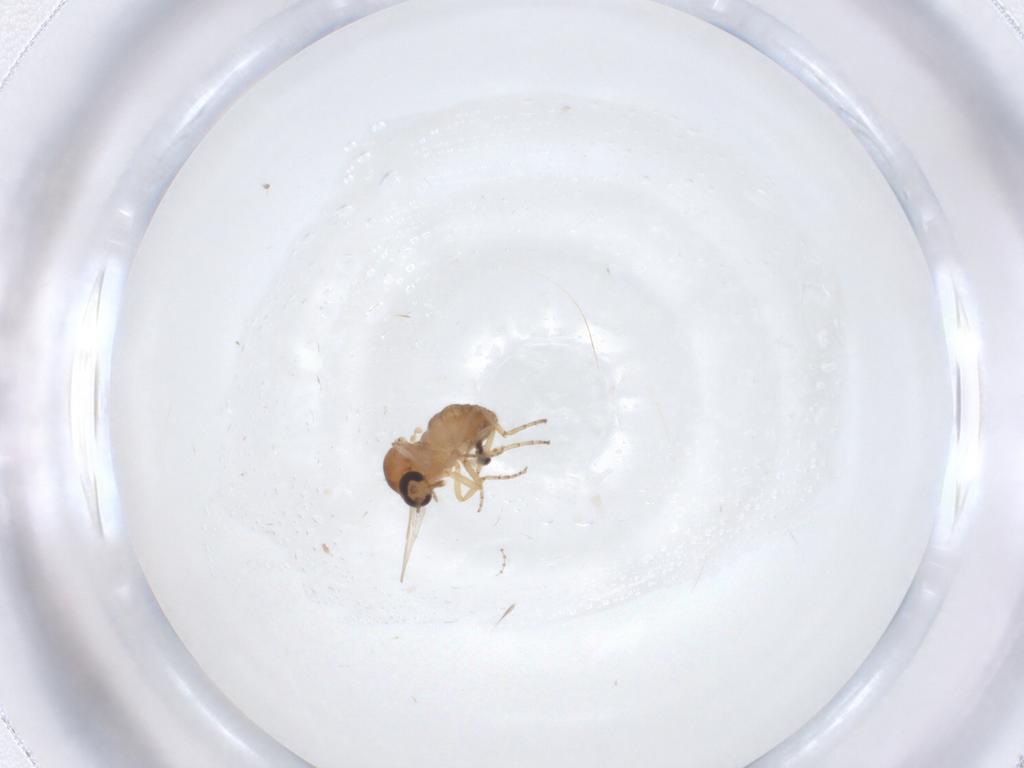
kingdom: Animalia
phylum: Arthropoda
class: Insecta
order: Diptera
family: Ceratopogonidae
